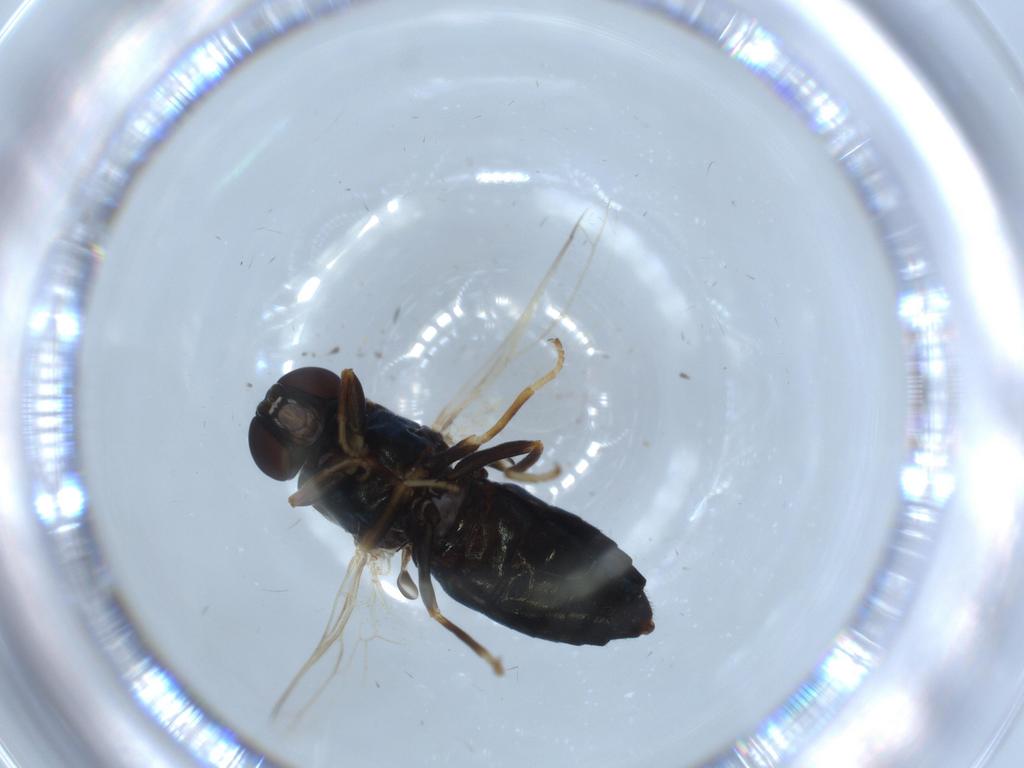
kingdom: Animalia
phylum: Arthropoda
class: Insecta
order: Diptera
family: Scenopinidae
